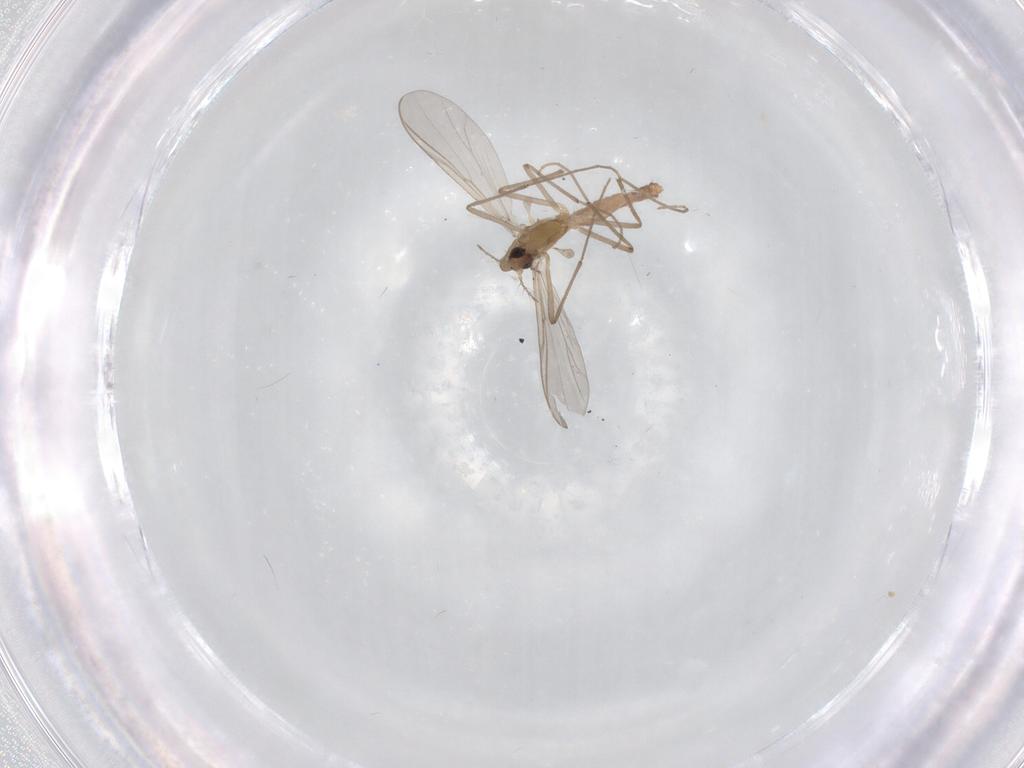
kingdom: Animalia
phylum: Arthropoda
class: Insecta
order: Diptera
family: Chironomidae
